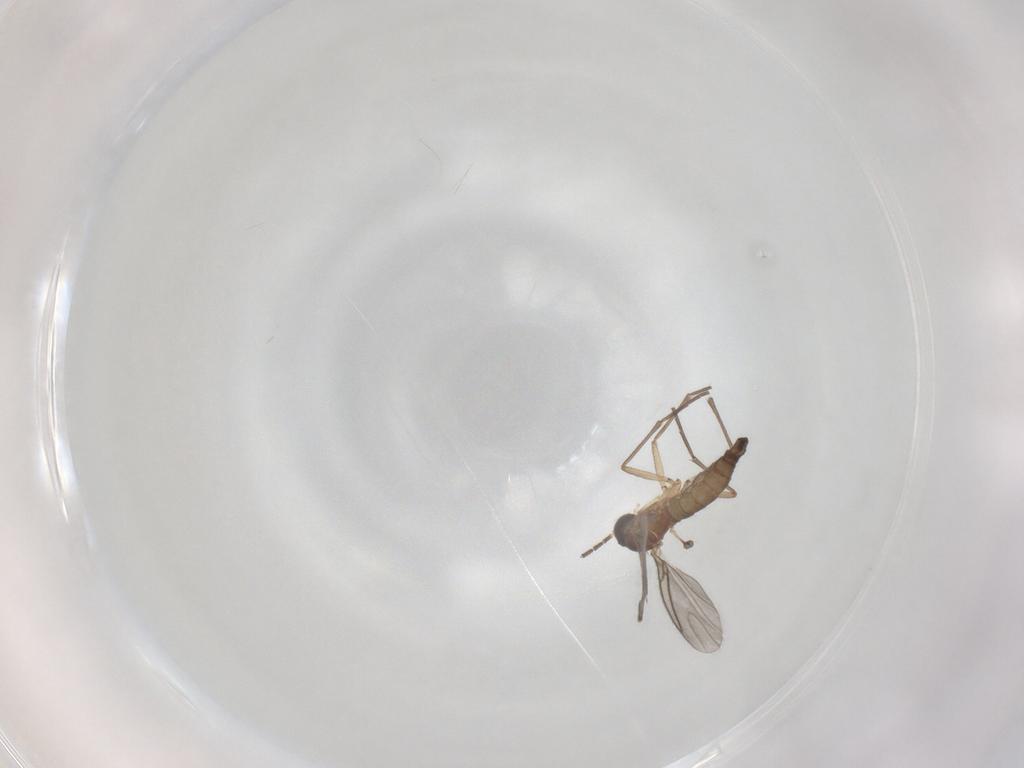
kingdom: Animalia
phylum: Arthropoda
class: Insecta
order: Diptera
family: Sciaridae
